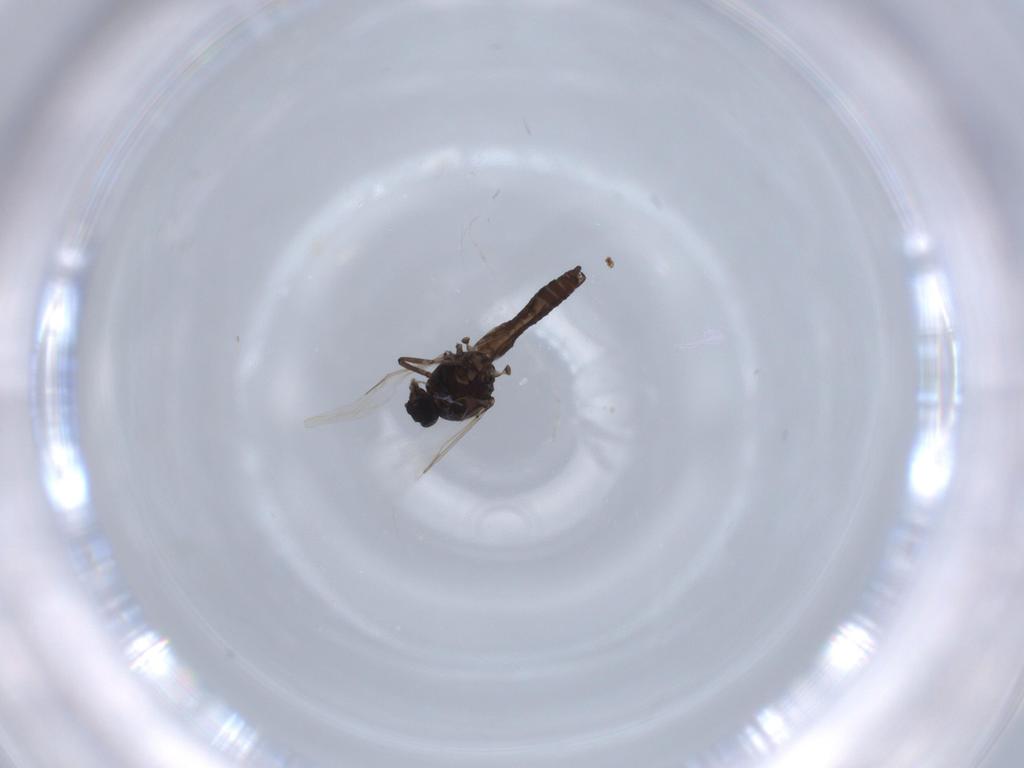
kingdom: Animalia
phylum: Arthropoda
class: Insecta
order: Diptera
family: Ceratopogonidae
